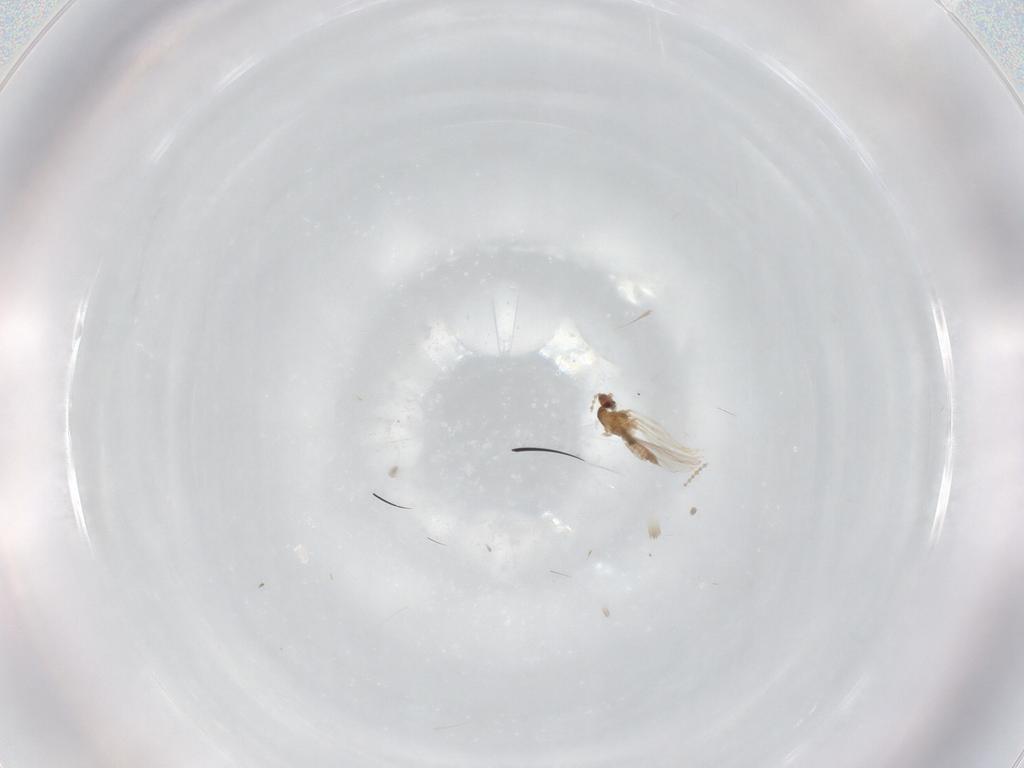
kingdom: Animalia
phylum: Arthropoda
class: Insecta
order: Diptera
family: Cecidomyiidae
